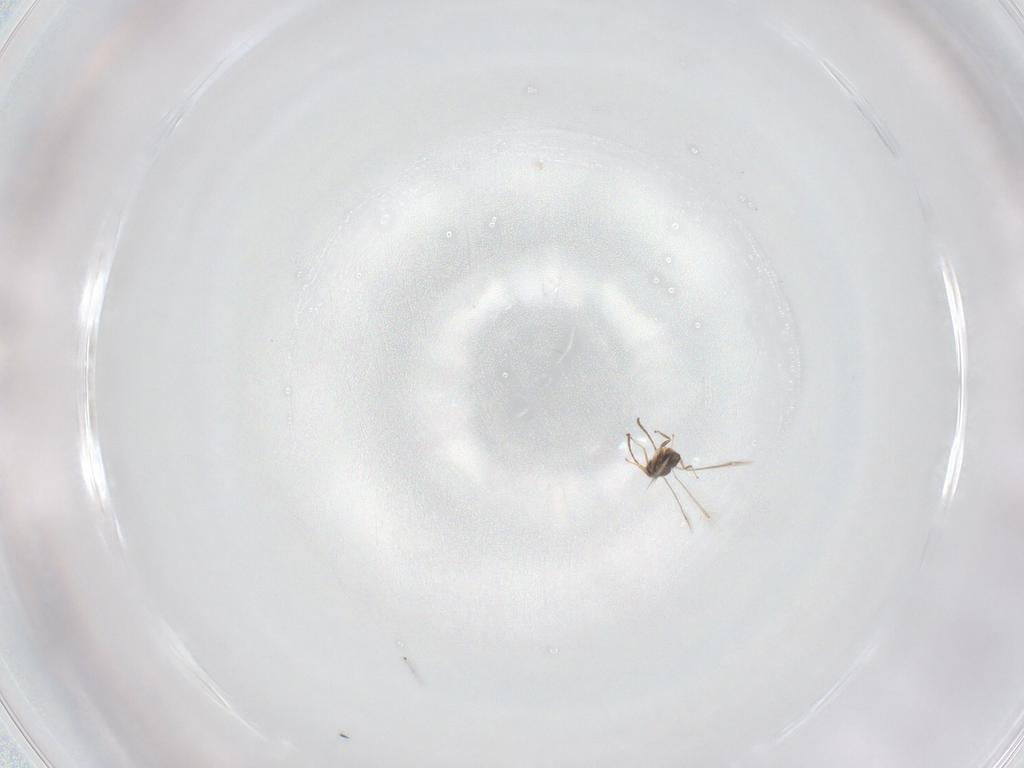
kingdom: Animalia
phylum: Arthropoda
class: Insecta
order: Hymenoptera
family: Braconidae
